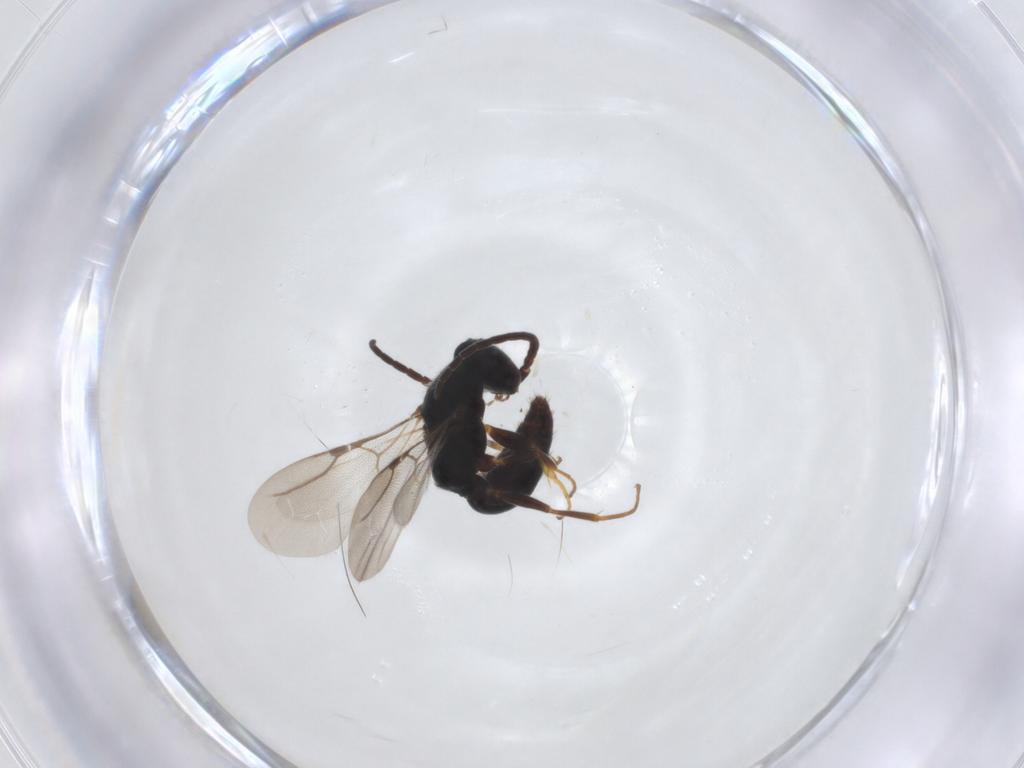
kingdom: Animalia
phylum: Arthropoda
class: Insecta
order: Hymenoptera
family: Bethylidae
